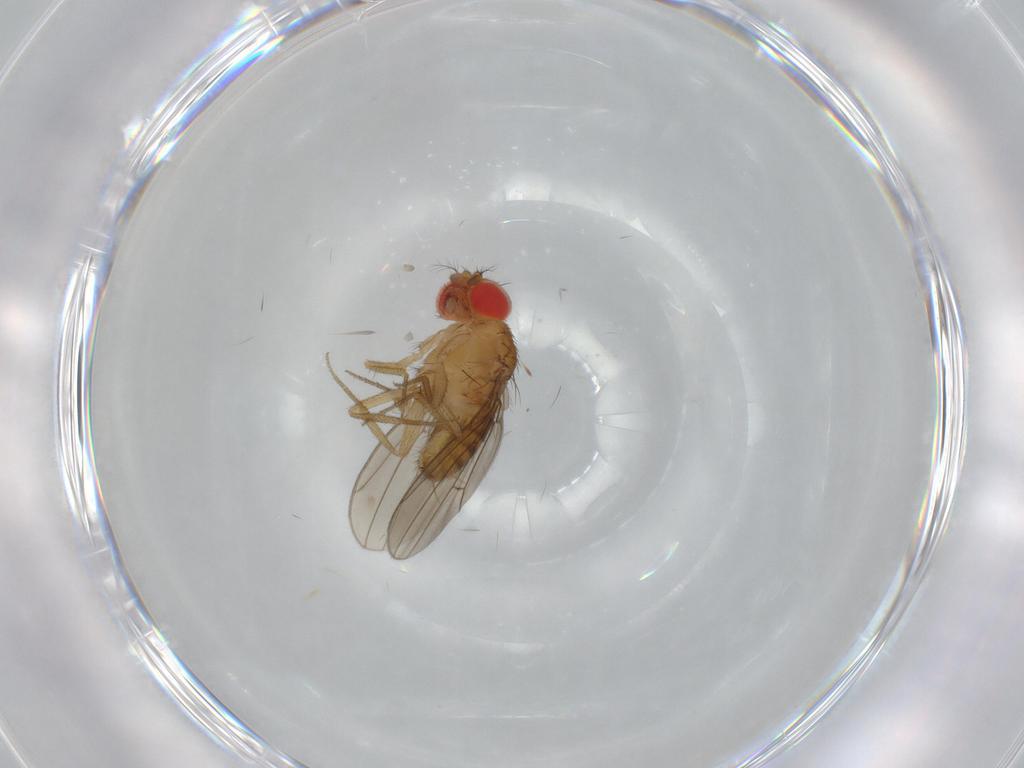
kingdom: Animalia
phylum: Arthropoda
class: Insecta
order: Diptera
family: Drosophilidae
